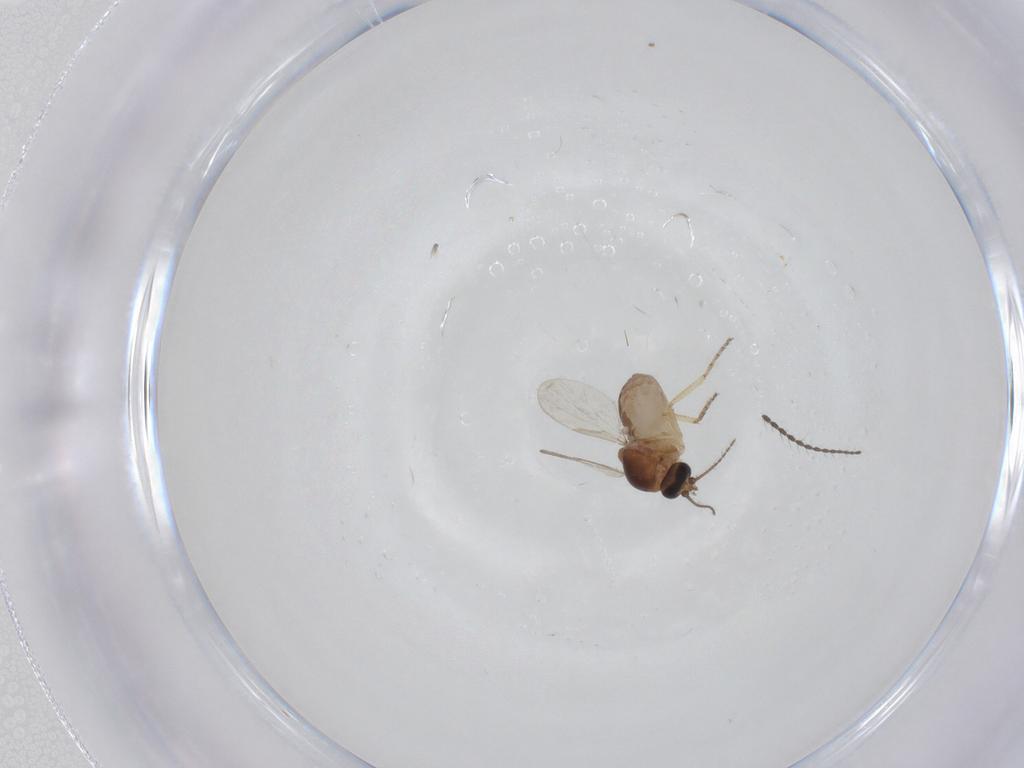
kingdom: Animalia
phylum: Arthropoda
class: Insecta
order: Diptera
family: Ceratopogonidae
